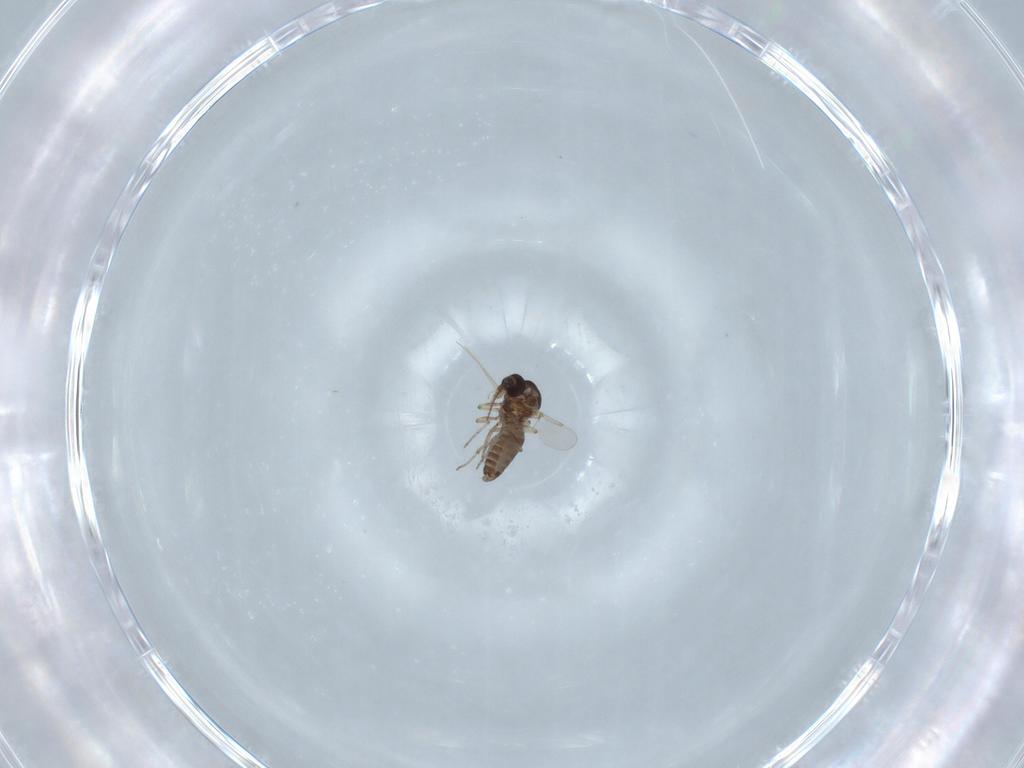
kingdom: Animalia
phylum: Arthropoda
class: Insecta
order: Diptera
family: Ceratopogonidae
